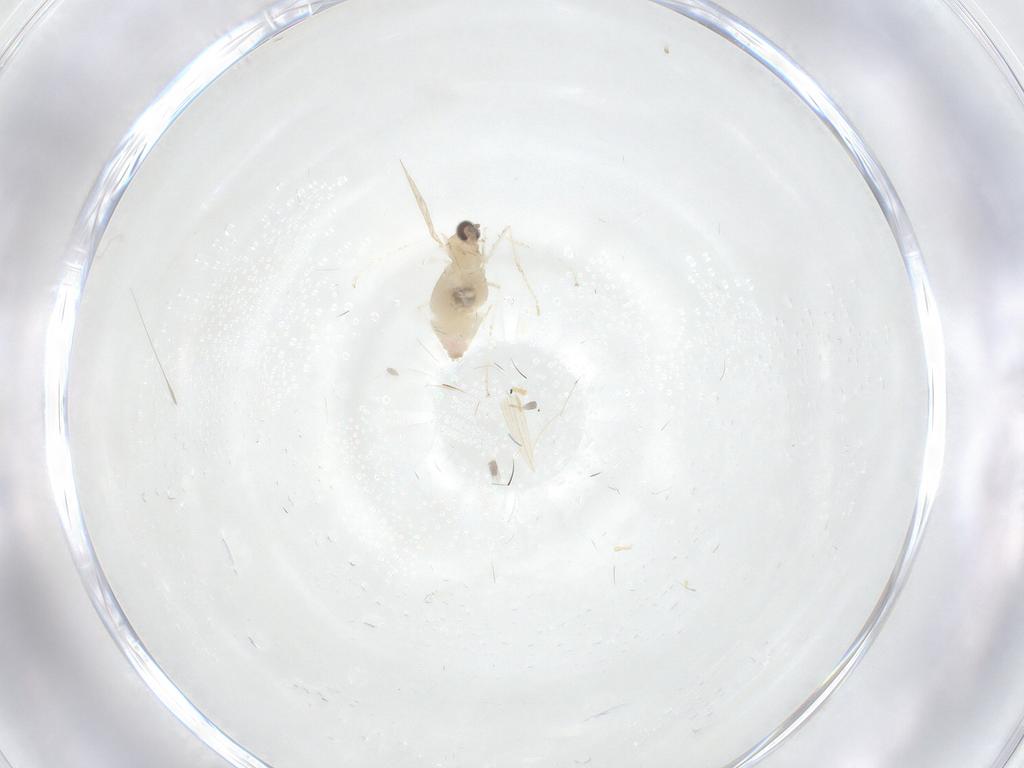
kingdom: Animalia
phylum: Arthropoda
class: Insecta
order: Diptera
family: Cecidomyiidae
